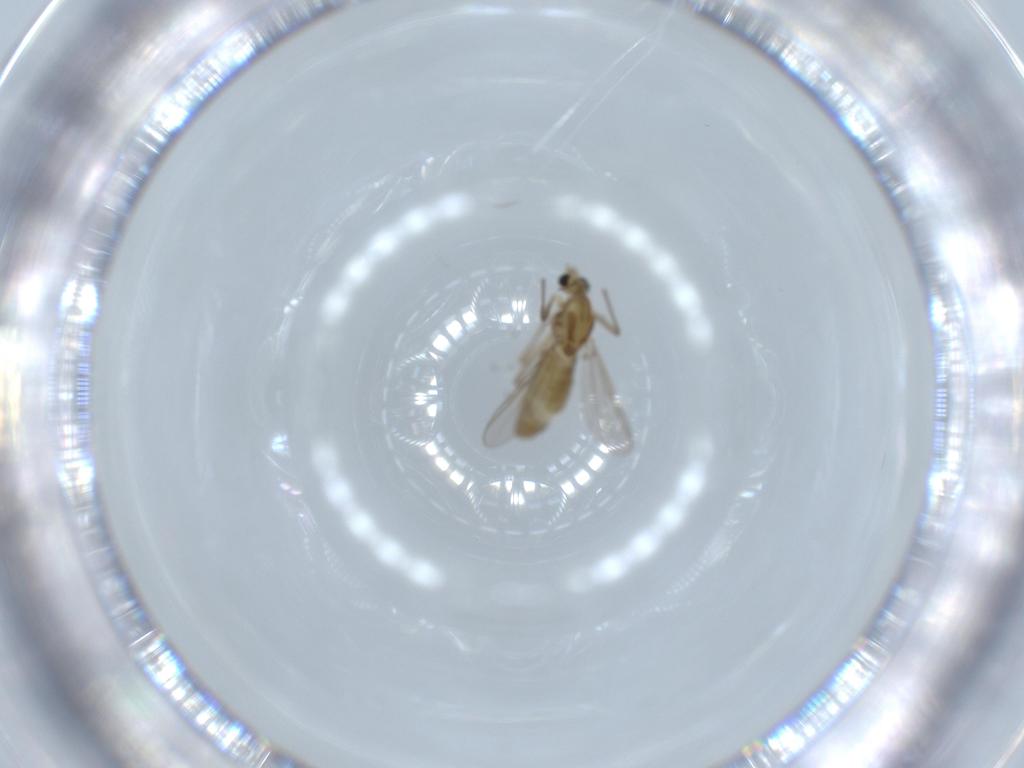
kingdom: Animalia
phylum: Arthropoda
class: Insecta
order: Diptera
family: Chironomidae
